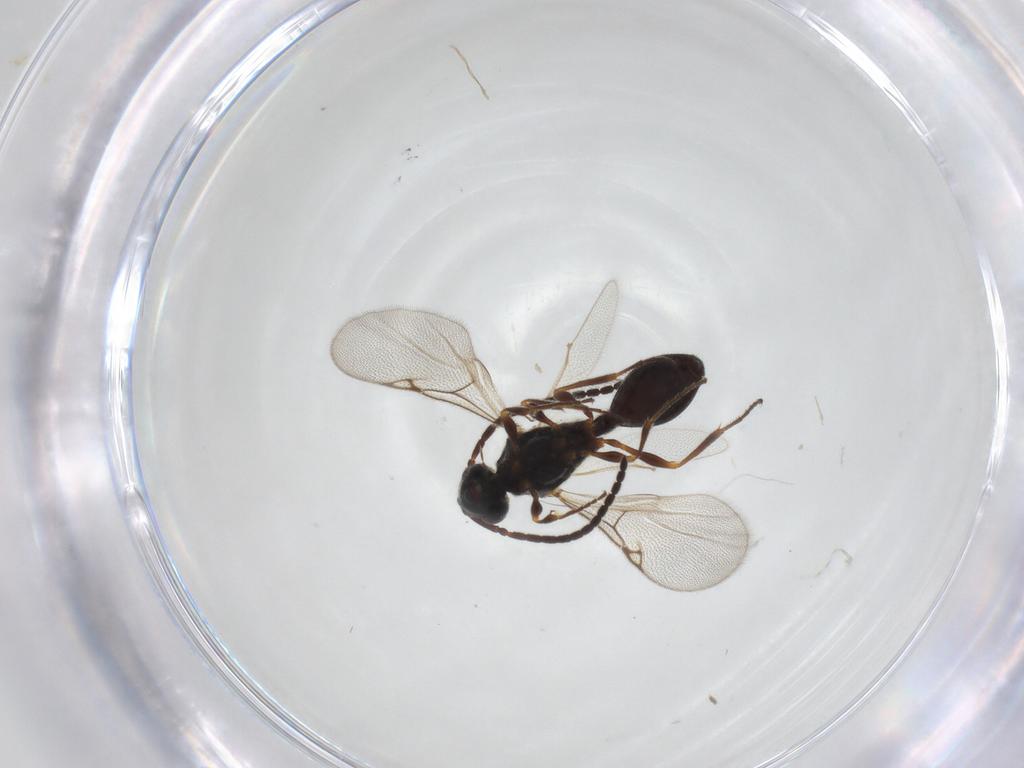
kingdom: Animalia
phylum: Arthropoda
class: Insecta
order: Hymenoptera
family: Diapriidae
